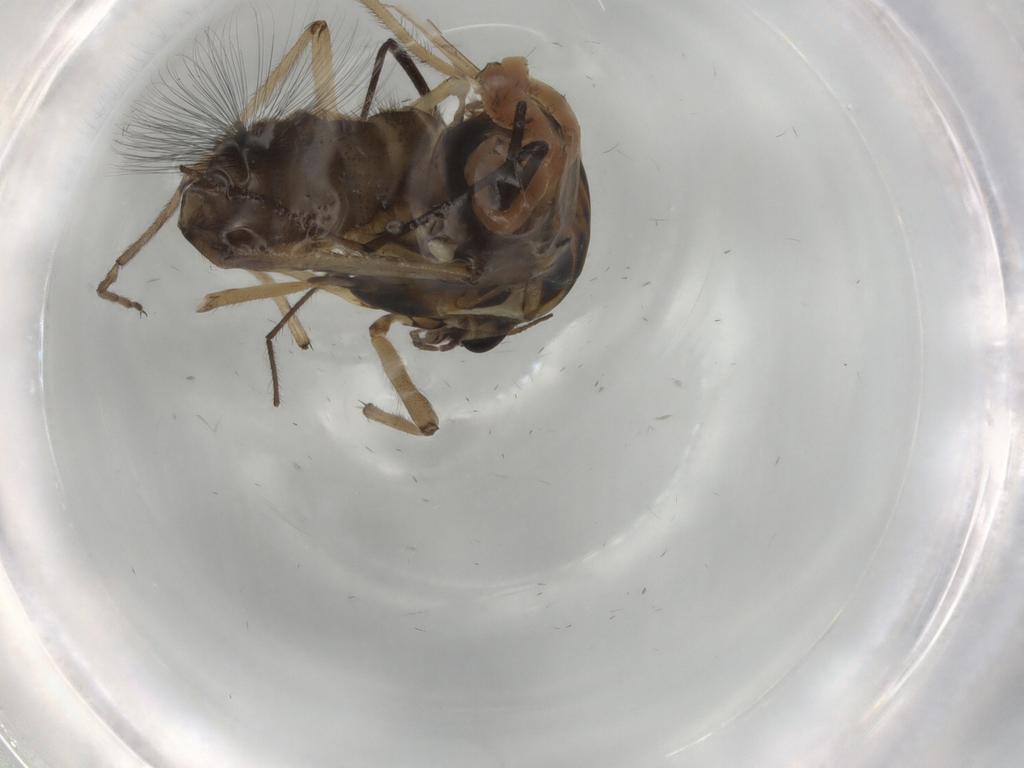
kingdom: Animalia
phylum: Arthropoda
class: Insecta
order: Diptera
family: Chironomidae
